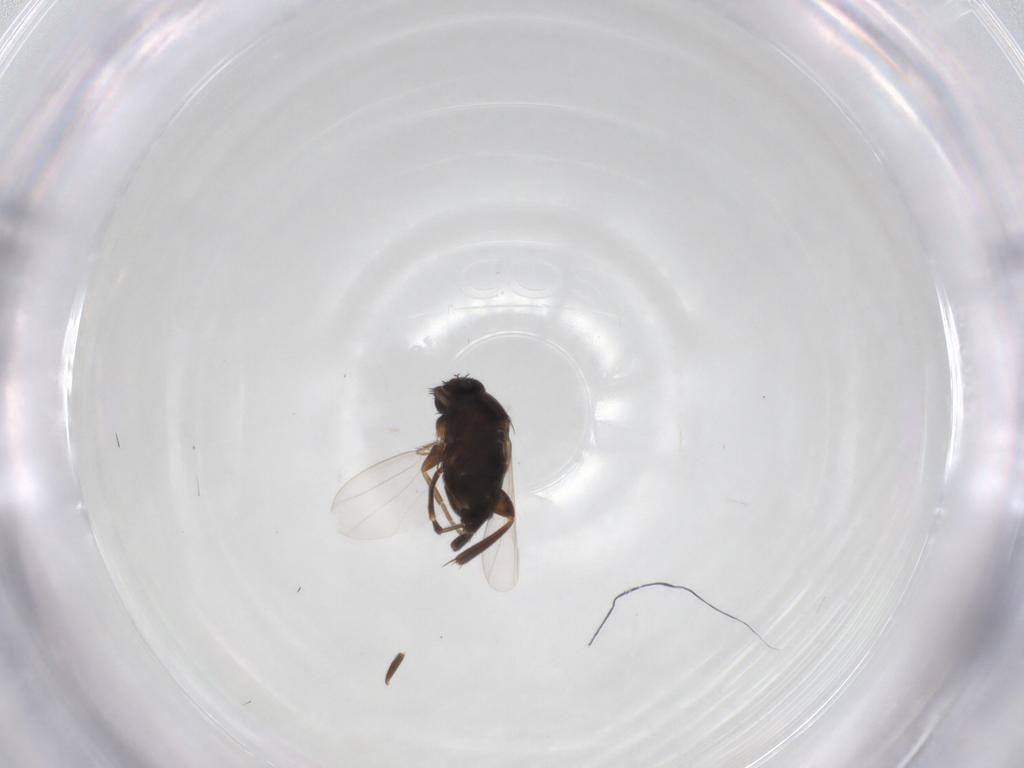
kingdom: Animalia
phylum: Arthropoda
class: Insecta
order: Diptera
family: Phoridae
